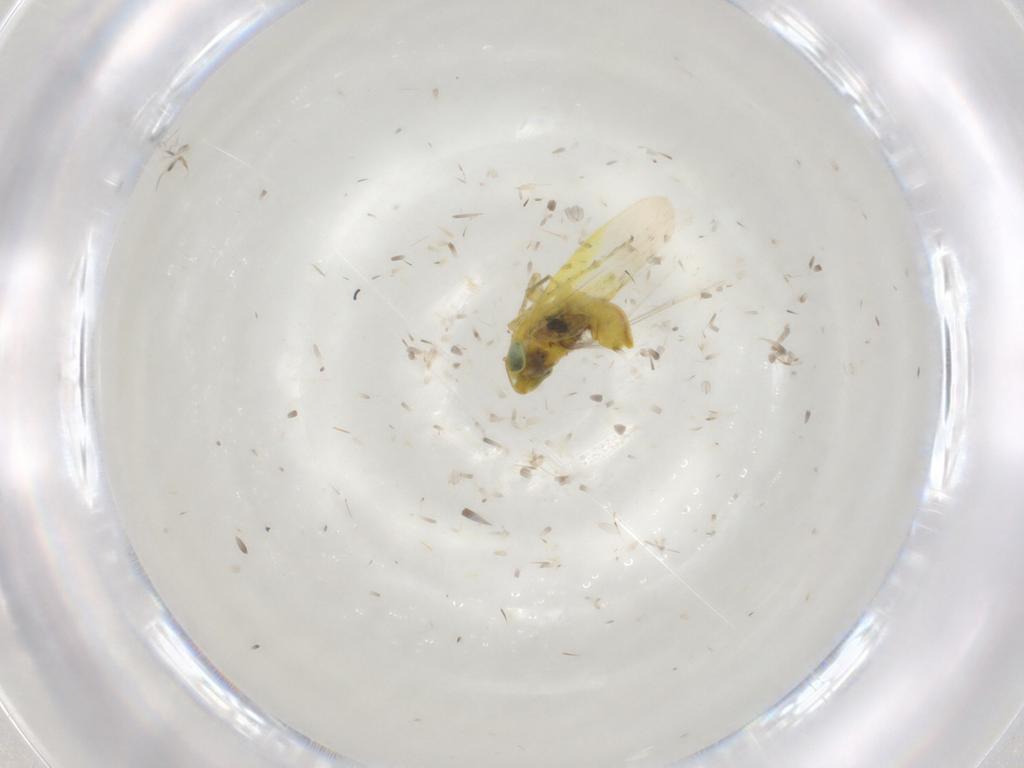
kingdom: Animalia
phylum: Arthropoda
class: Insecta
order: Hemiptera
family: Cicadellidae
